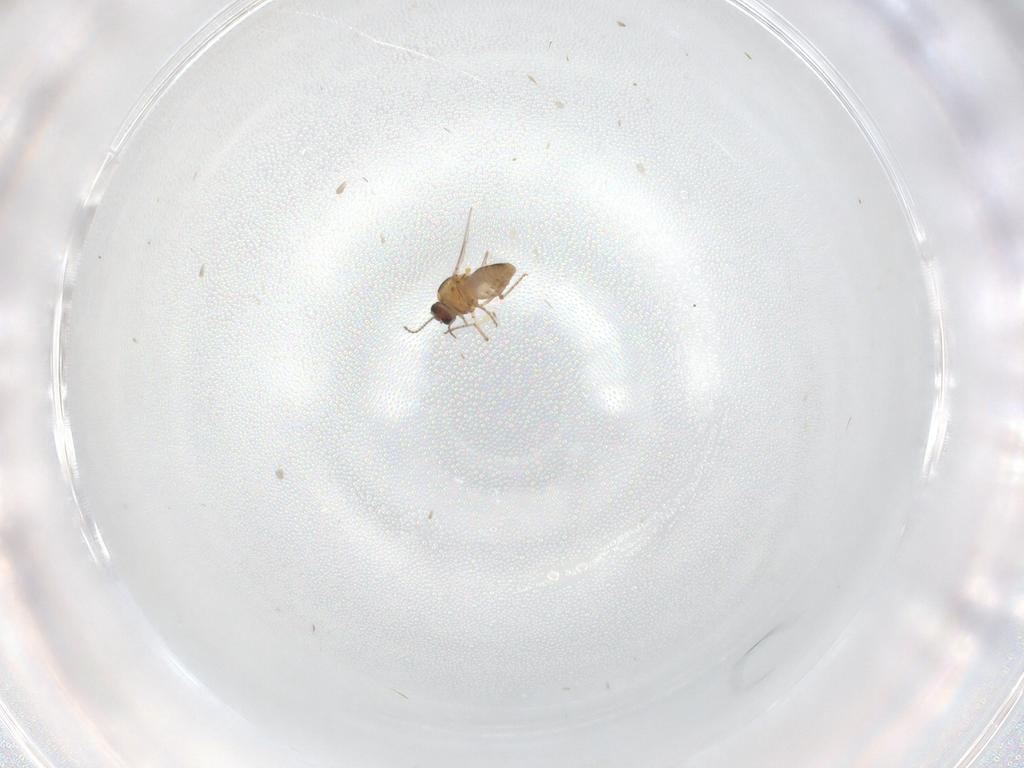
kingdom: Animalia
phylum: Arthropoda
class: Insecta
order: Diptera
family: Ceratopogonidae
